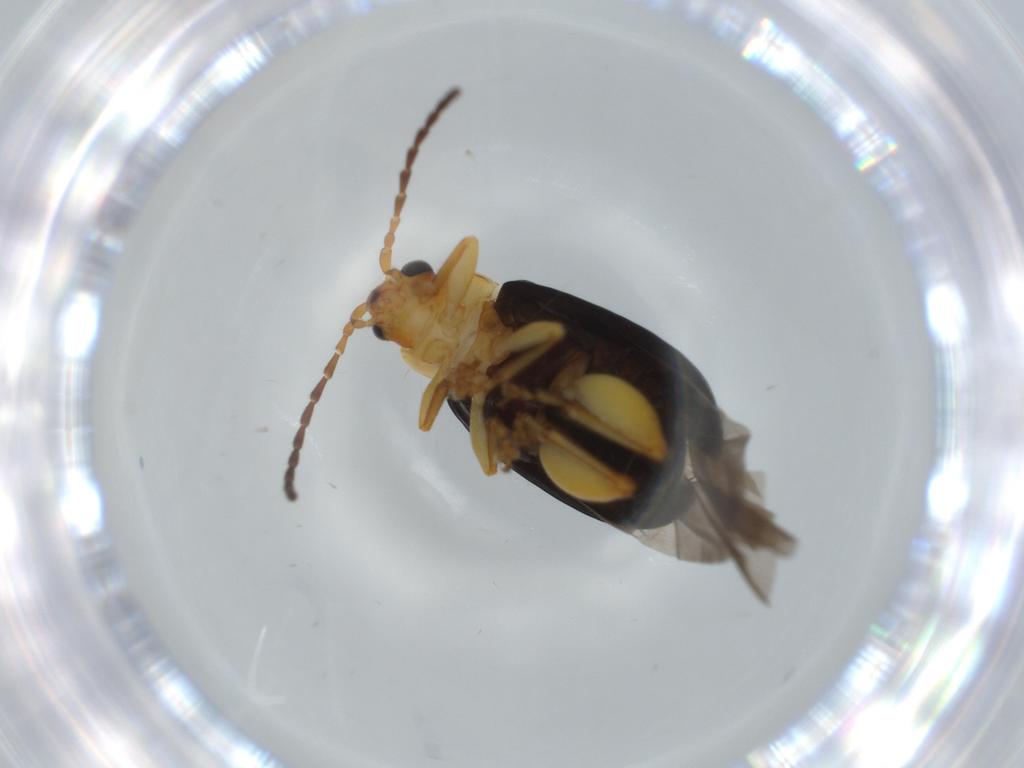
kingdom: Animalia
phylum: Arthropoda
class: Insecta
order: Coleoptera
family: Chrysomelidae
